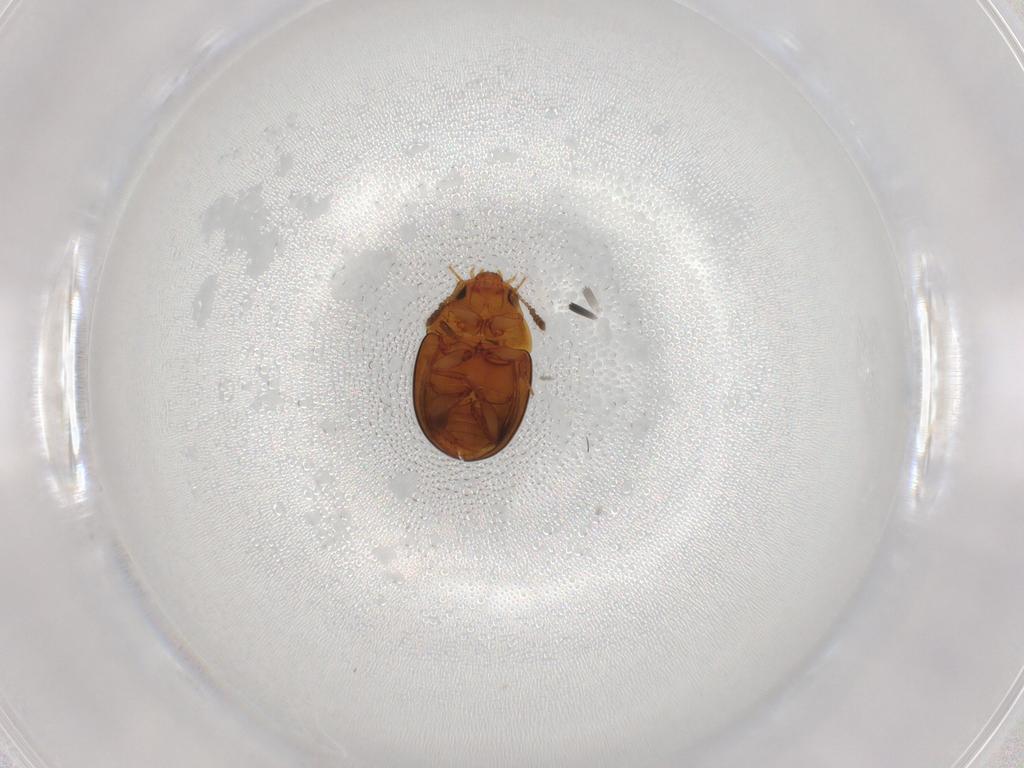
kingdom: Animalia
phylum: Arthropoda
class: Insecta
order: Coleoptera
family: Leiodidae
